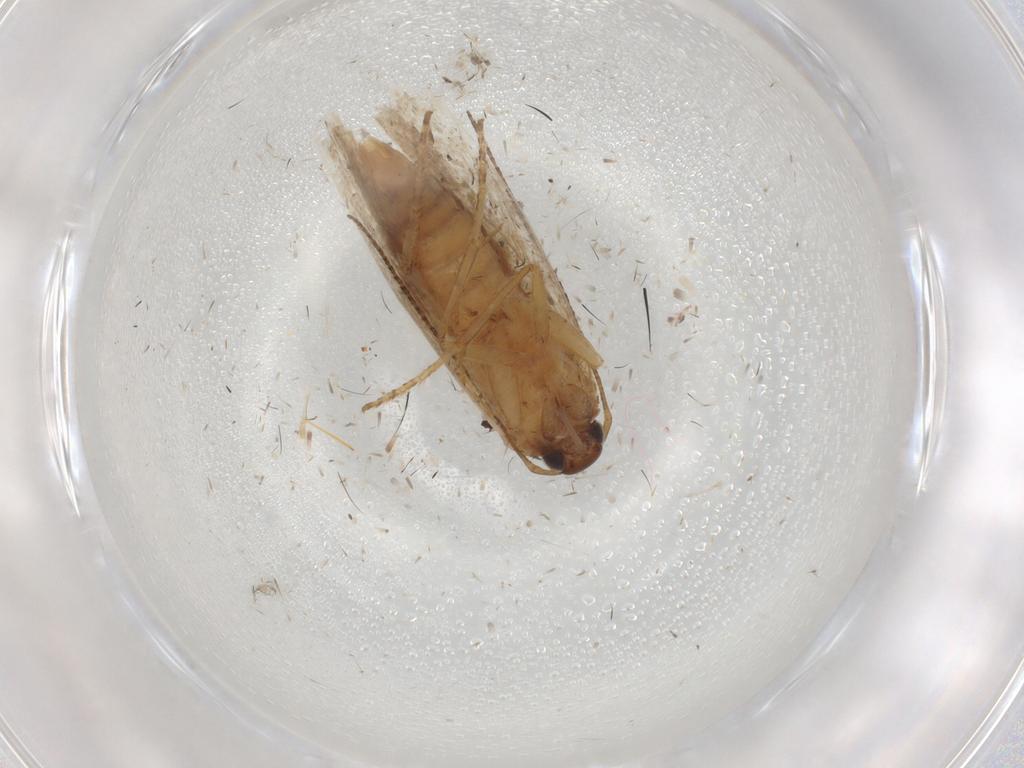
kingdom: Animalia
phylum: Arthropoda
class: Insecta
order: Lepidoptera
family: Gelechiidae
